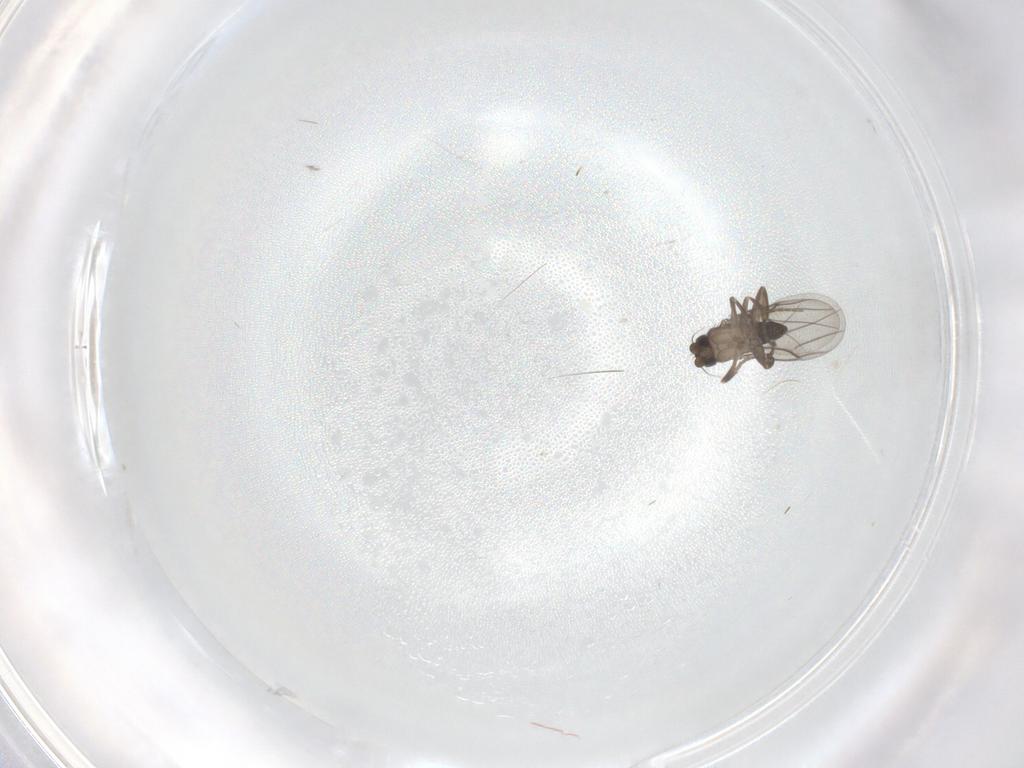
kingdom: Animalia
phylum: Arthropoda
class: Insecta
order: Diptera
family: Phoridae
